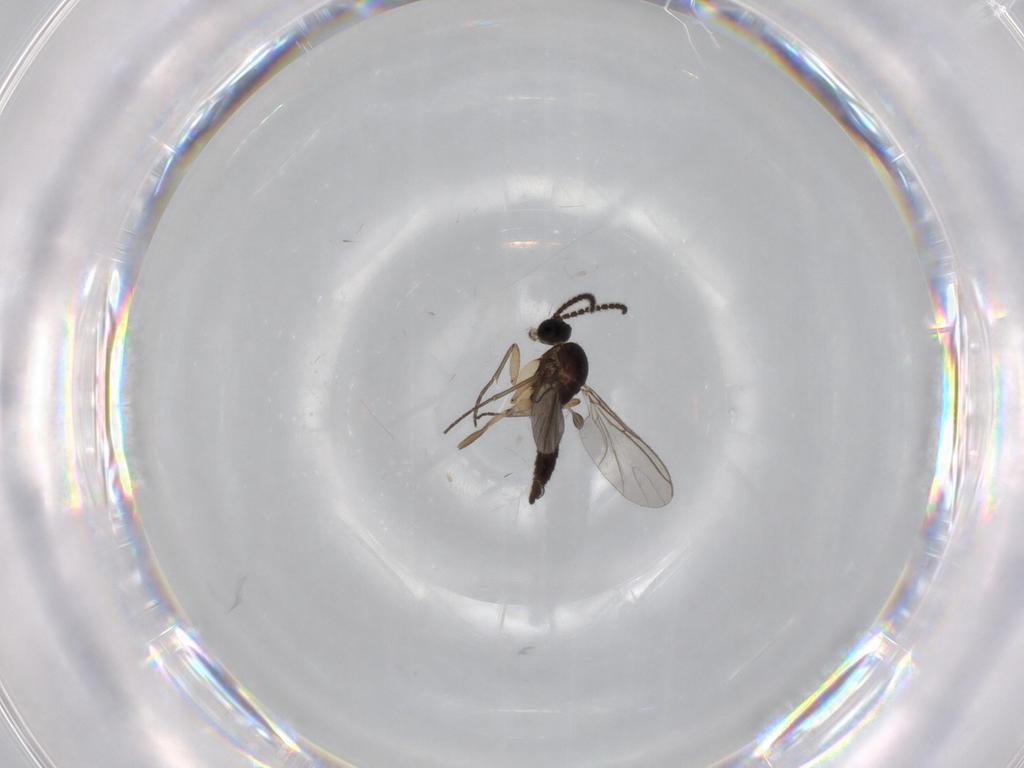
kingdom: Animalia
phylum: Arthropoda
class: Insecta
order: Diptera
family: Sciaridae
